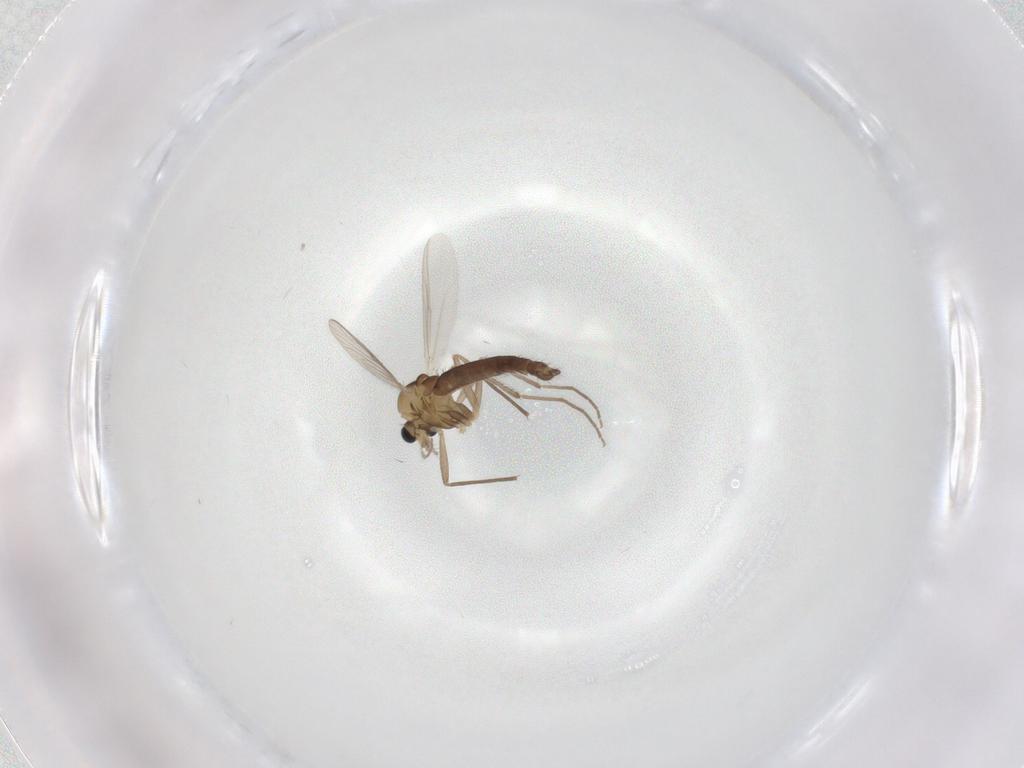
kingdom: Animalia
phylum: Arthropoda
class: Insecta
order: Diptera
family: Chironomidae
